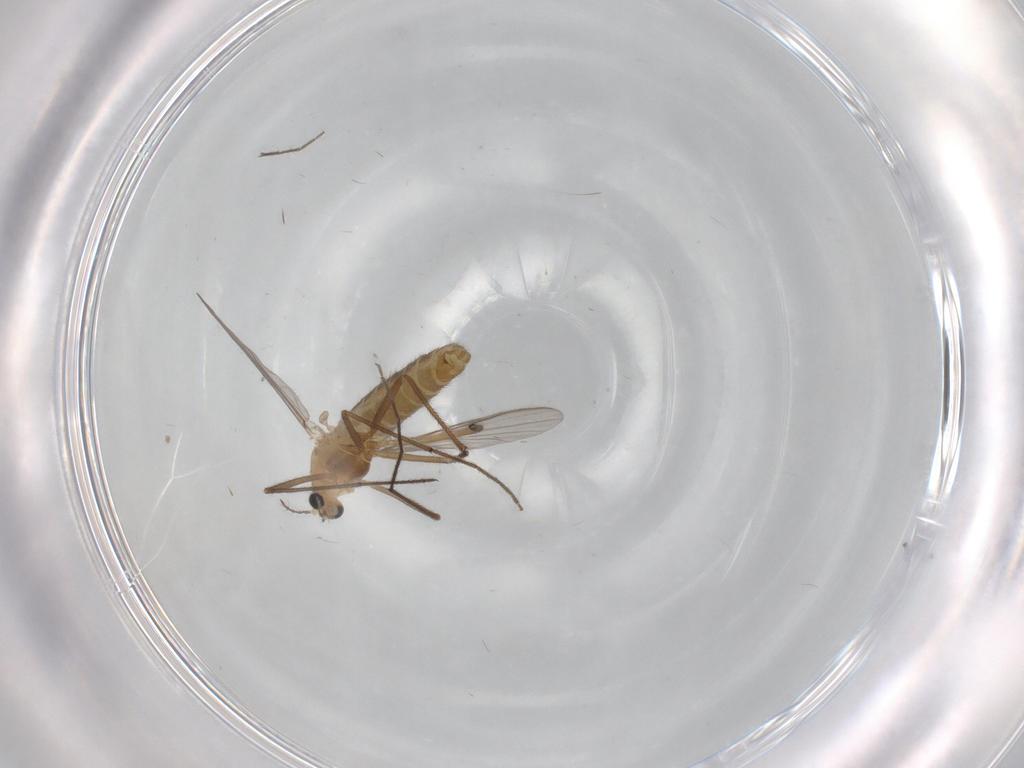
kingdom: Animalia
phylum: Arthropoda
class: Insecta
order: Diptera
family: Chironomidae
